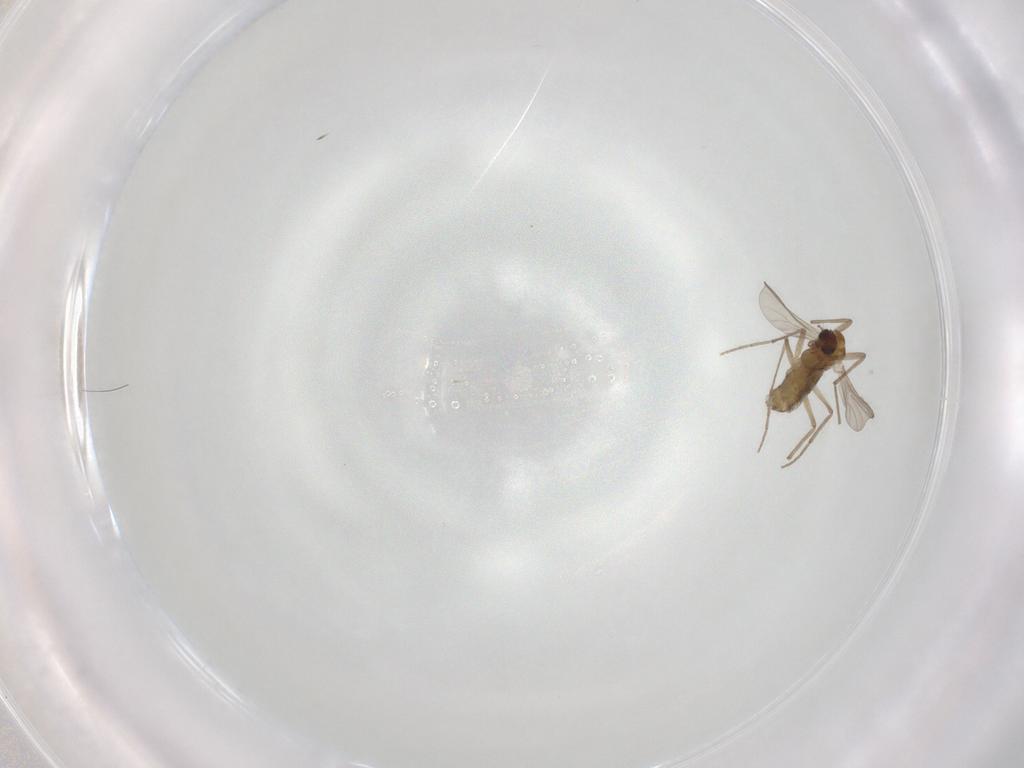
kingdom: Animalia
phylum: Arthropoda
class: Insecta
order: Diptera
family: Chironomidae
